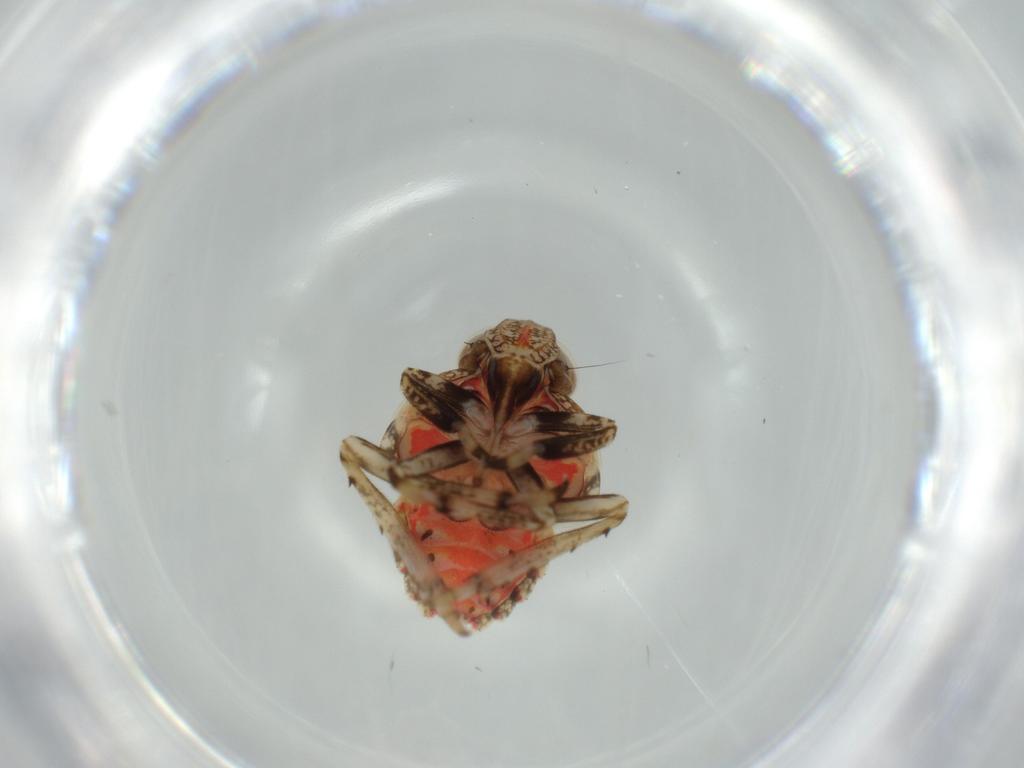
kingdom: Animalia
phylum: Arthropoda
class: Insecta
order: Hemiptera
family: Issidae
